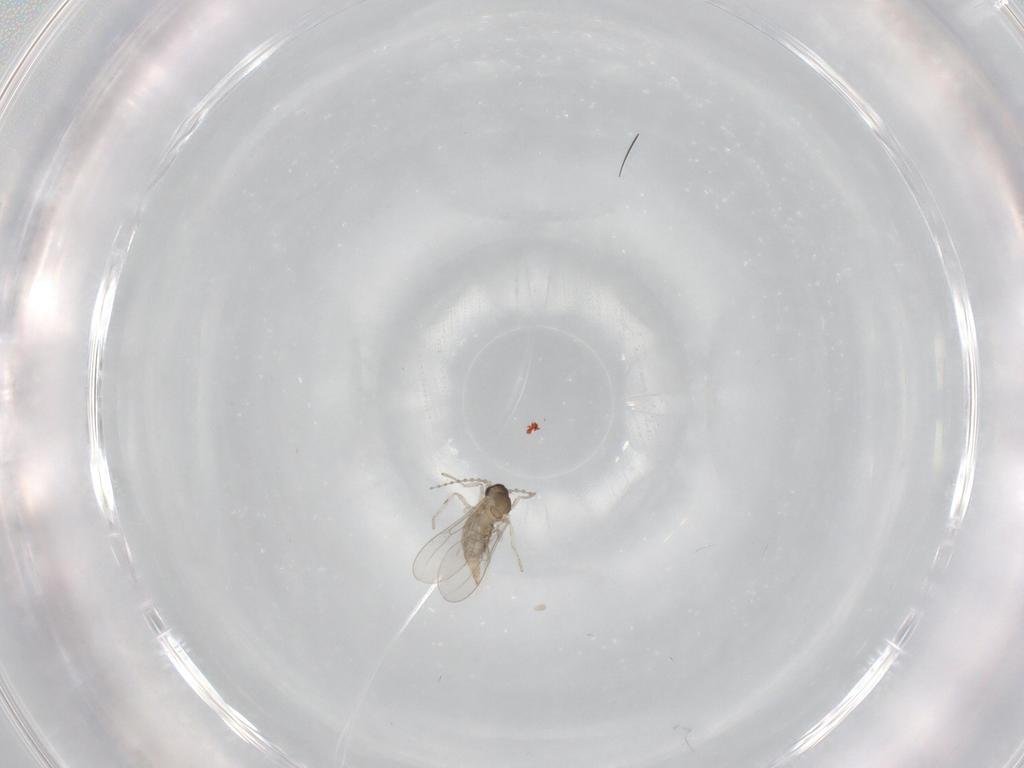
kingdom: Animalia
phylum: Arthropoda
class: Insecta
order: Diptera
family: Cecidomyiidae
